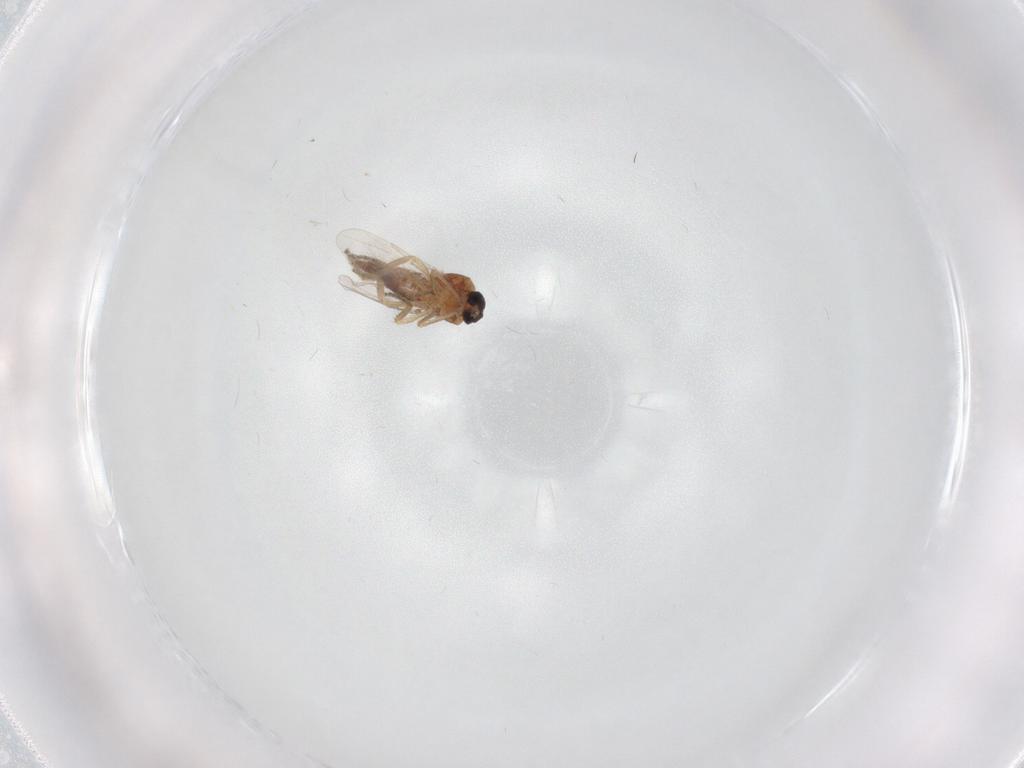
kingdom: Animalia
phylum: Arthropoda
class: Insecta
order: Diptera
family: Ceratopogonidae
